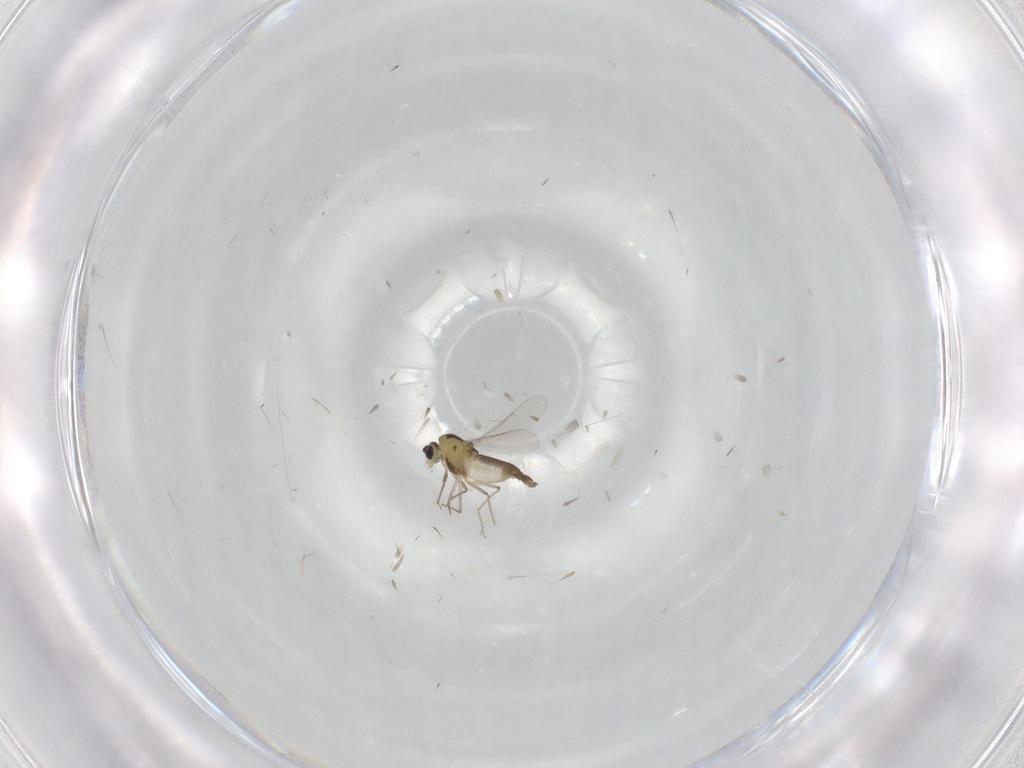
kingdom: Animalia
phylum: Arthropoda
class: Insecta
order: Diptera
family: Chironomidae
